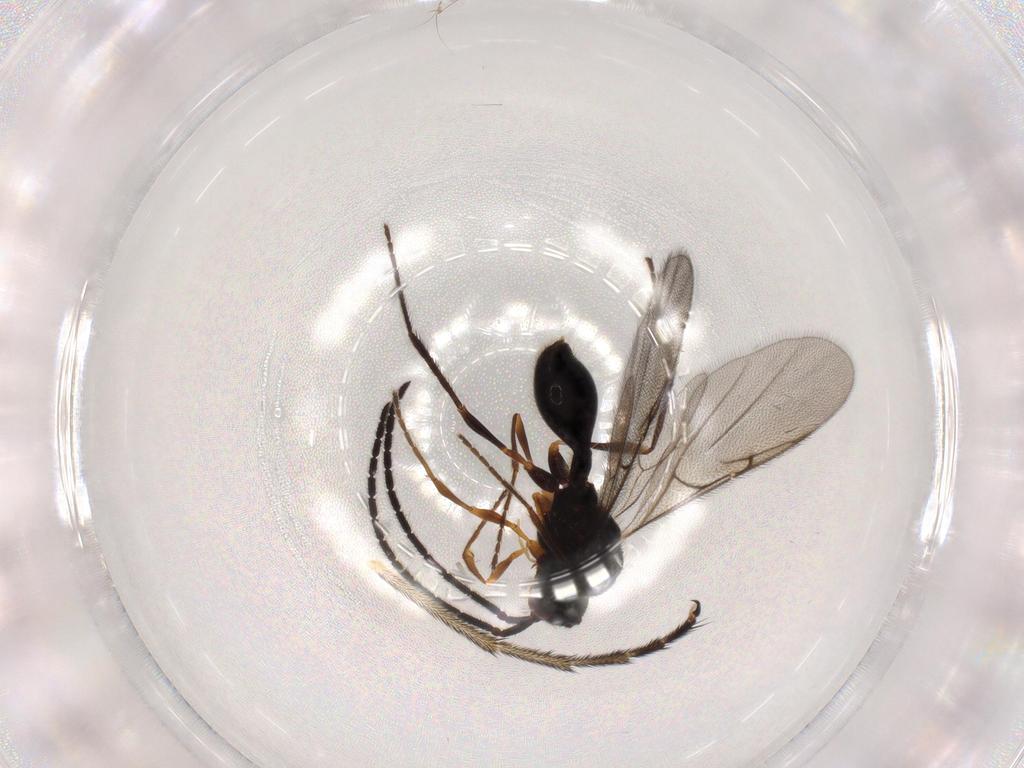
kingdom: Animalia
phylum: Arthropoda
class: Insecta
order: Hymenoptera
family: Diapriidae
